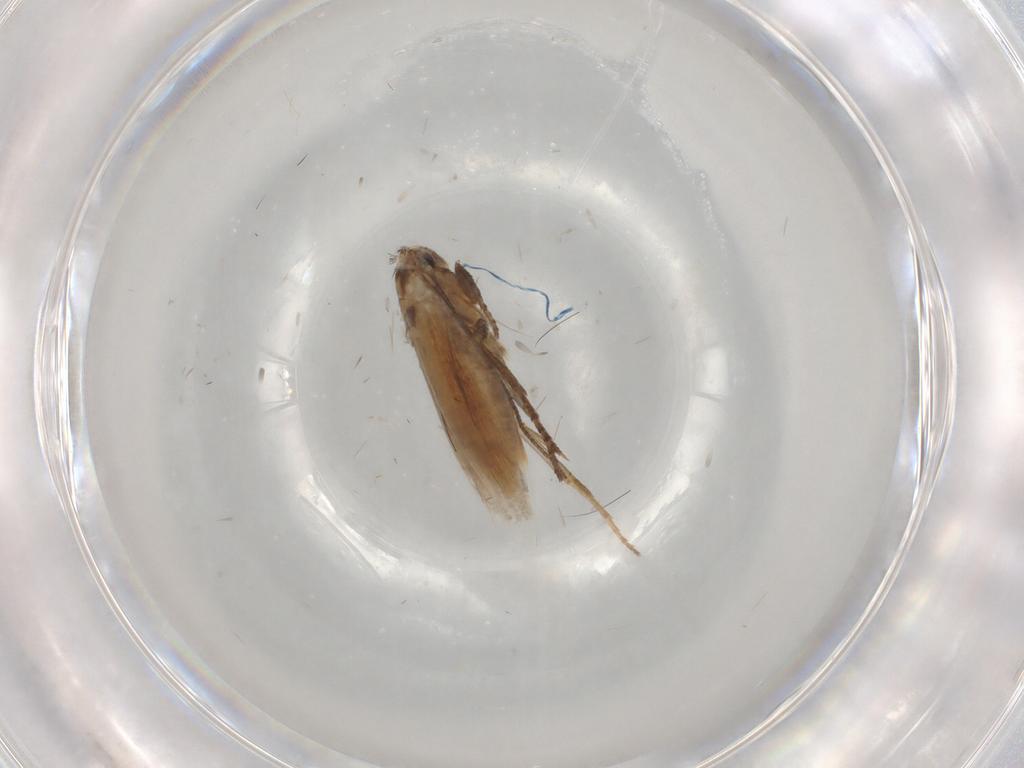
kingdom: Animalia
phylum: Arthropoda
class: Insecta
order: Lepidoptera
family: Bucculatricidae
